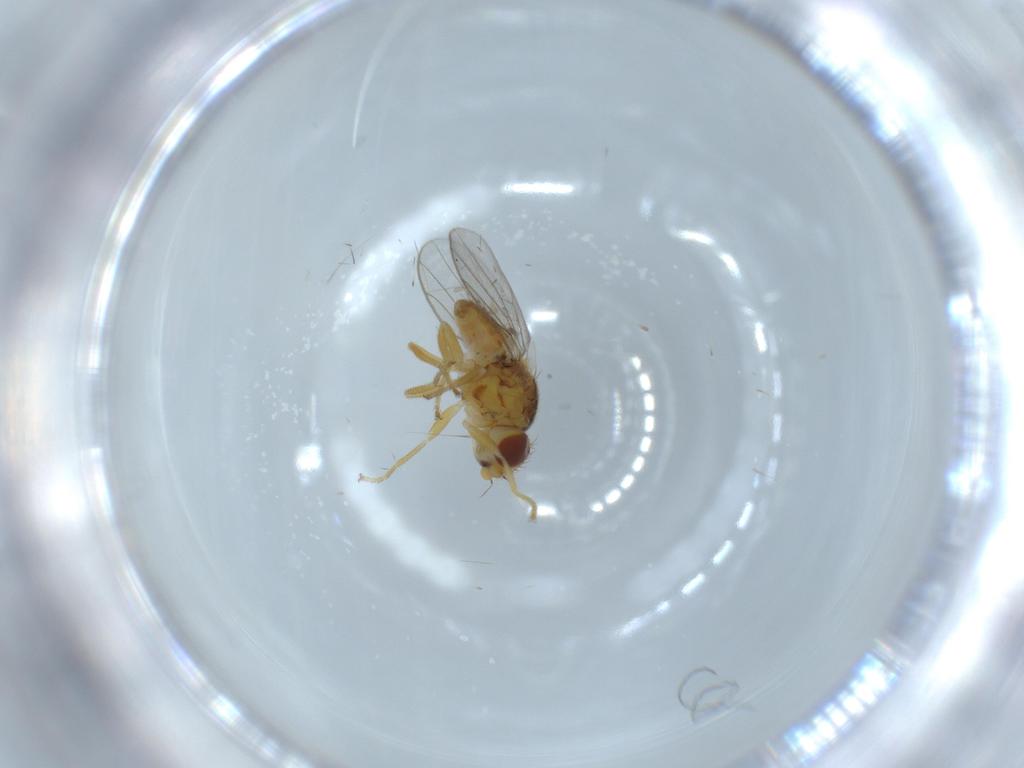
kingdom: Animalia
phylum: Arthropoda
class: Insecta
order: Diptera
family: Chloropidae
